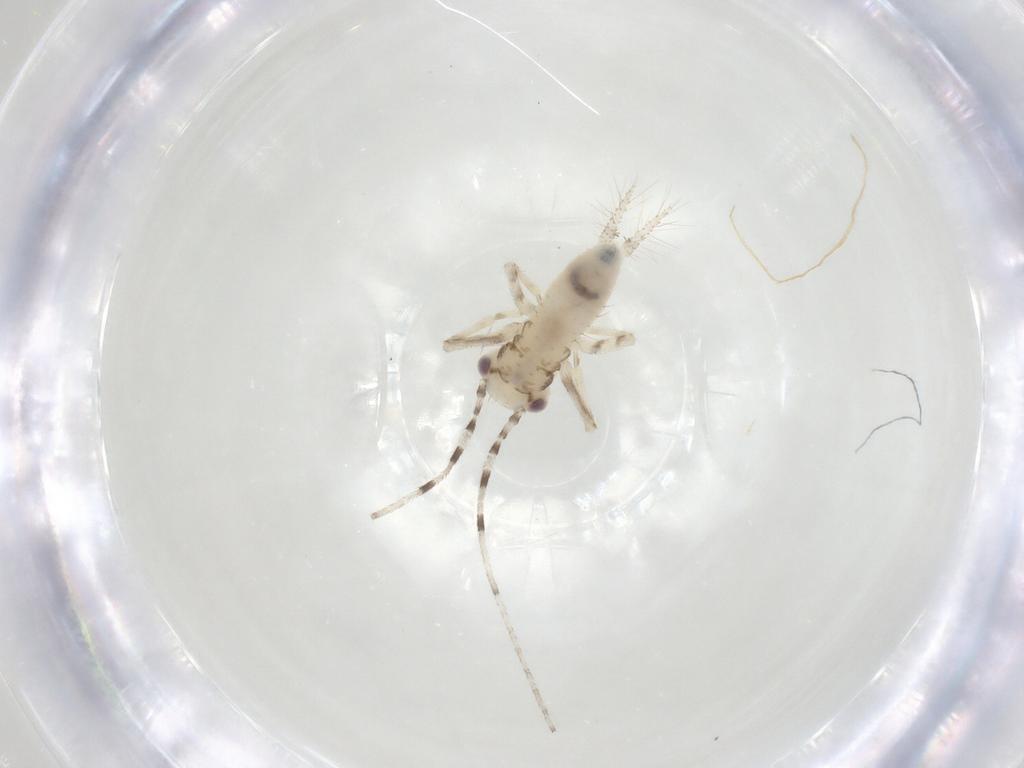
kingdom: Animalia
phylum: Arthropoda
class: Insecta
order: Orthoptera
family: Trigonidiidae
